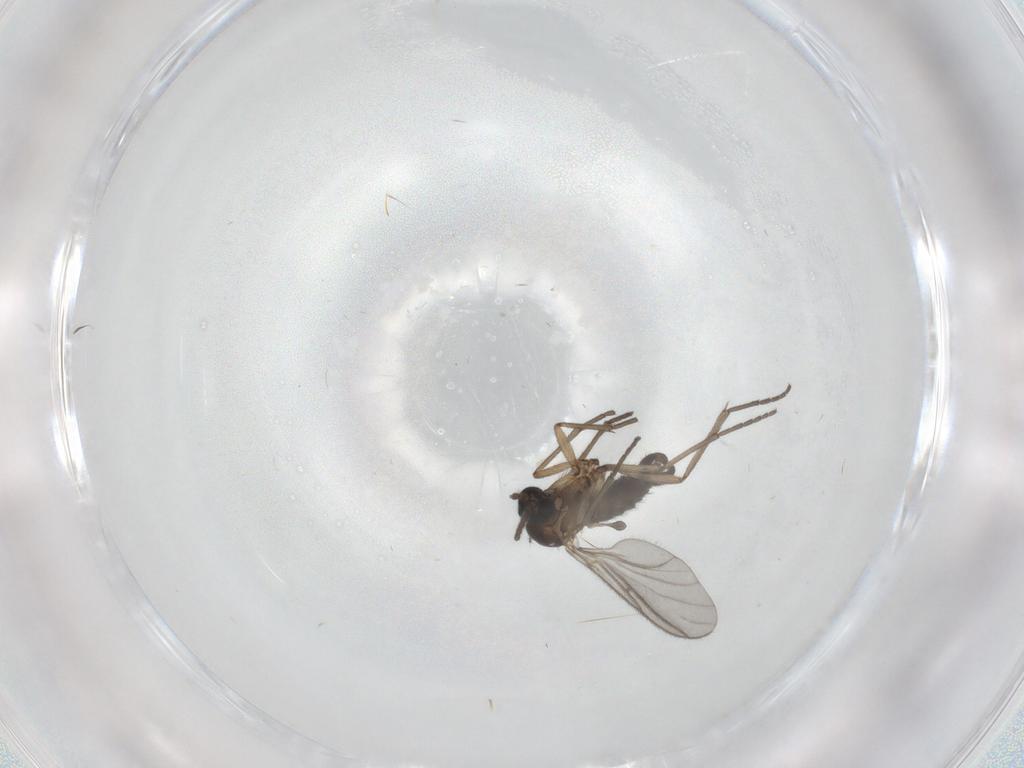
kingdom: Animalia
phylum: Arthropoda
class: Insecta
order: Diptera
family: Sciaridae
